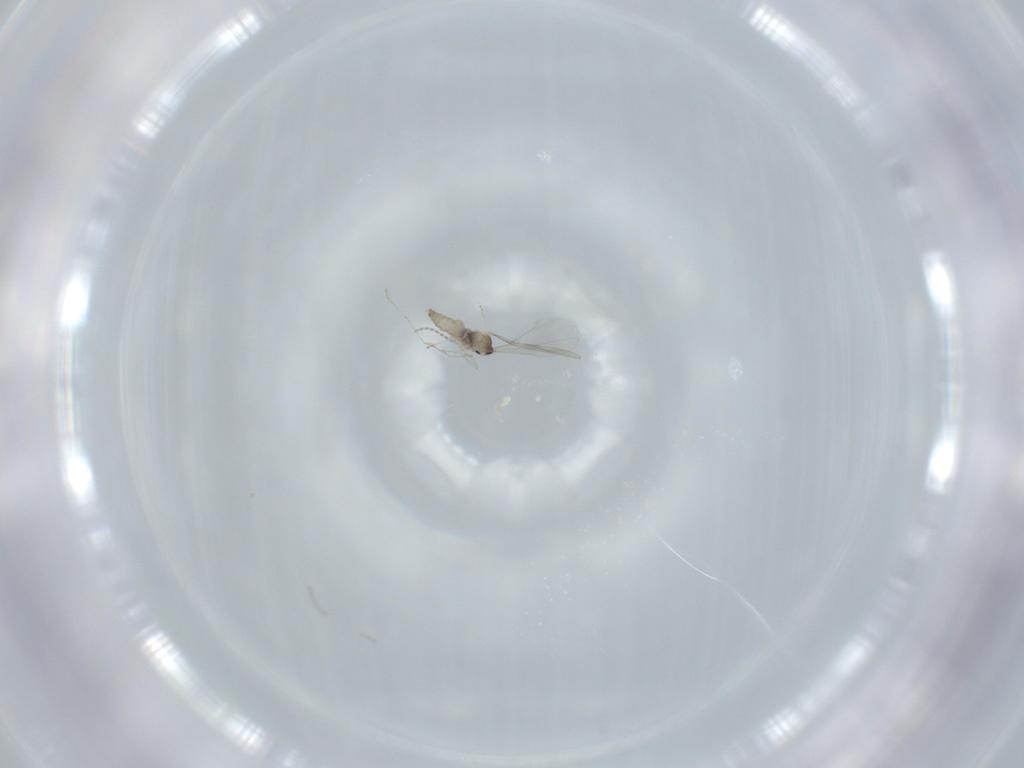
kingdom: Animalia
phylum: Arthropoda
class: Insecta
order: Diptera
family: Cecidomyiidae
